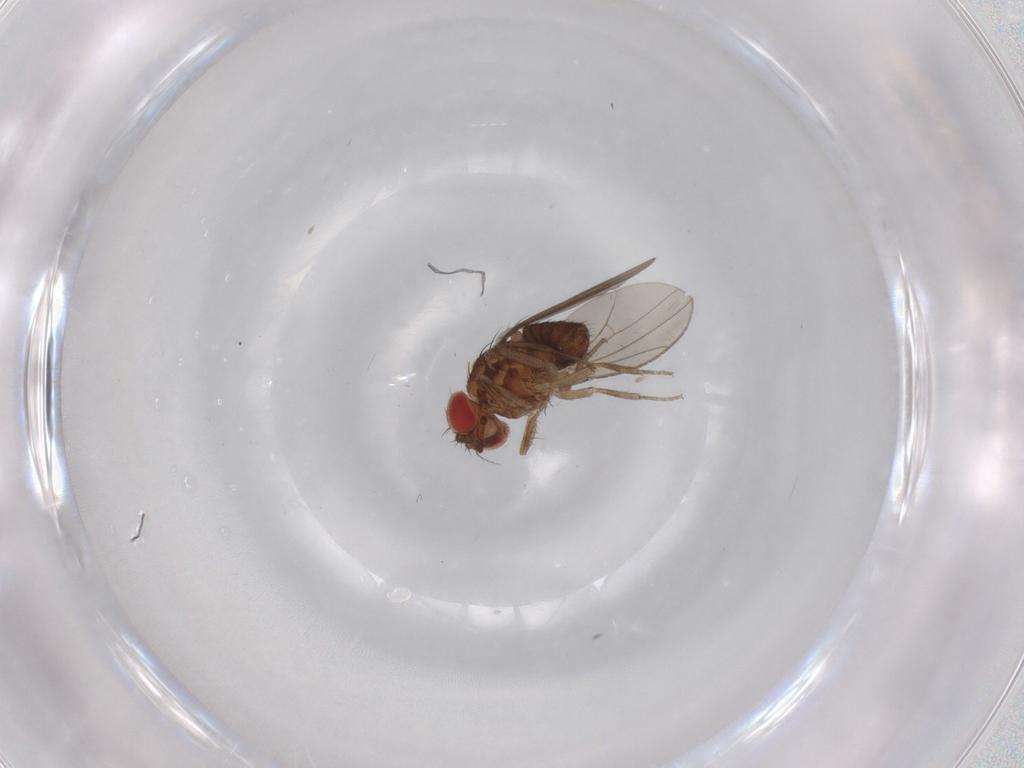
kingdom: Animalia
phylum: Arthropoda
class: Insecta
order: Diptera
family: Drosophilidae
